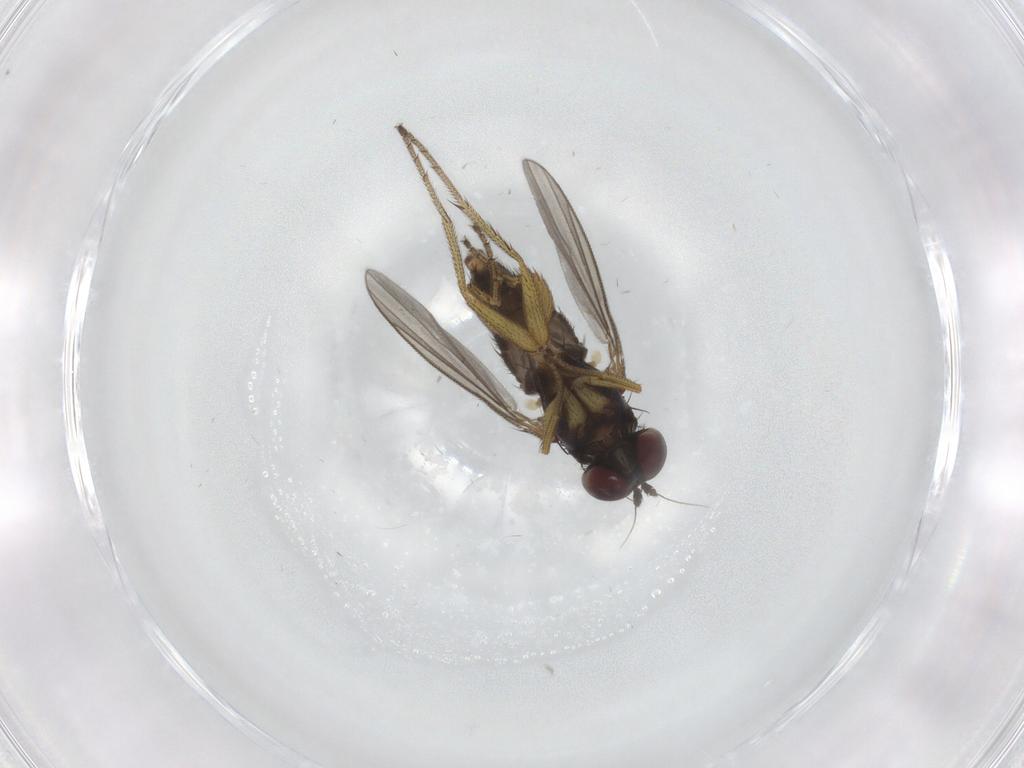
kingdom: Animalia
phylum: Arthropoda
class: Insecta
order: Diptera
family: Dolichopodidae
